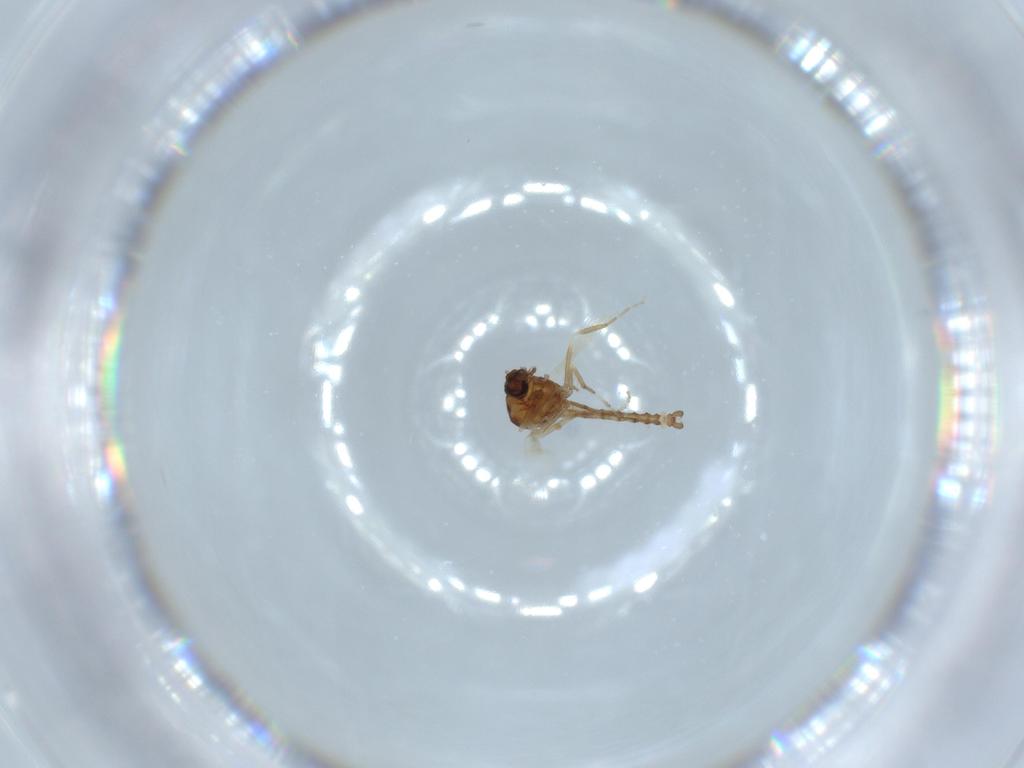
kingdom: Animalia
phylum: Arthropoda
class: Insecta
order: Diptera
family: Ceratopogonidae
